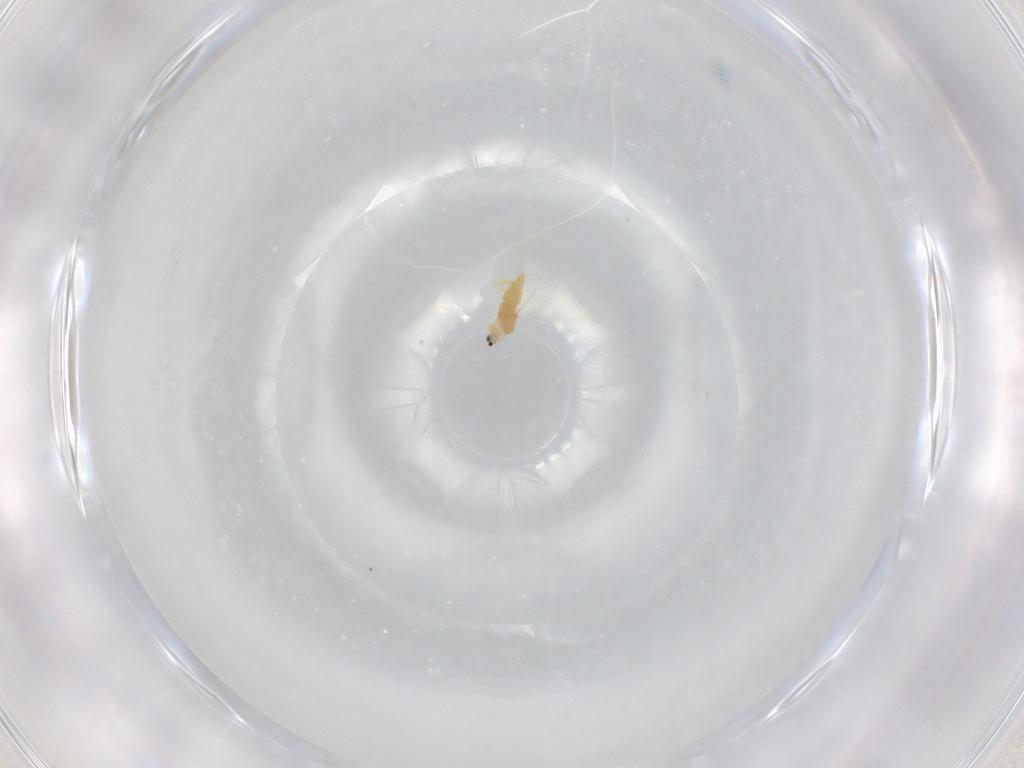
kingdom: Animalia
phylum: Arthropoda
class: Insecta
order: Hemiptera
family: Diaspididae
